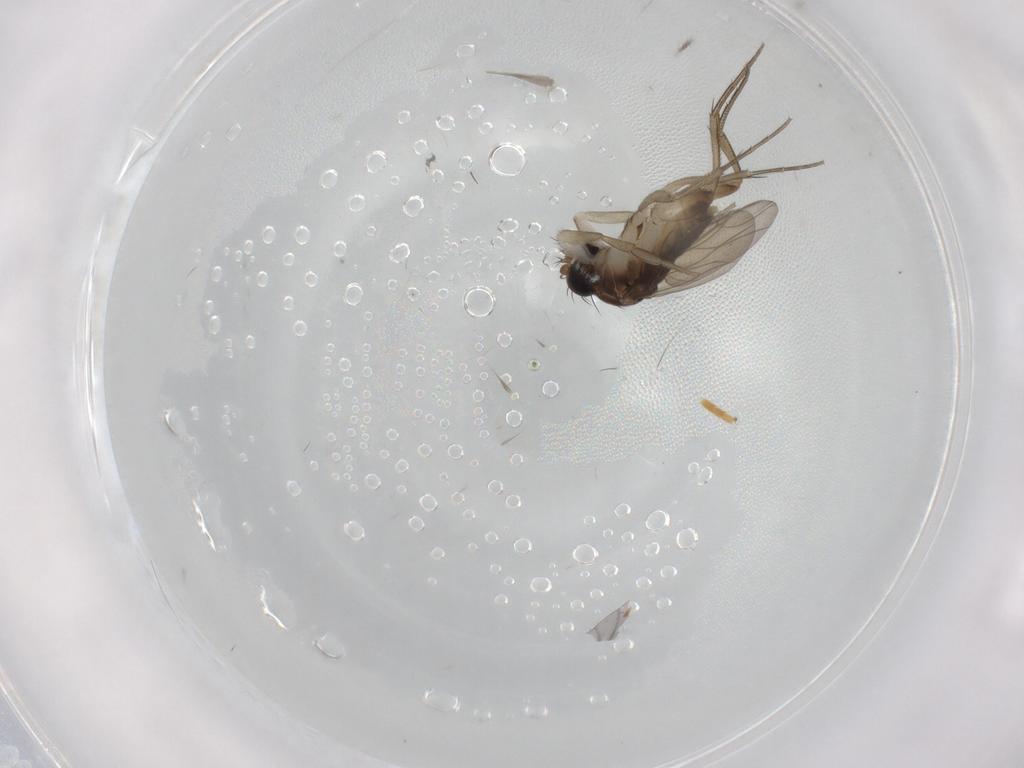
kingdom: Animalia
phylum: Arthropoda
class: Insecta
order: Diptera
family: Phoridae
